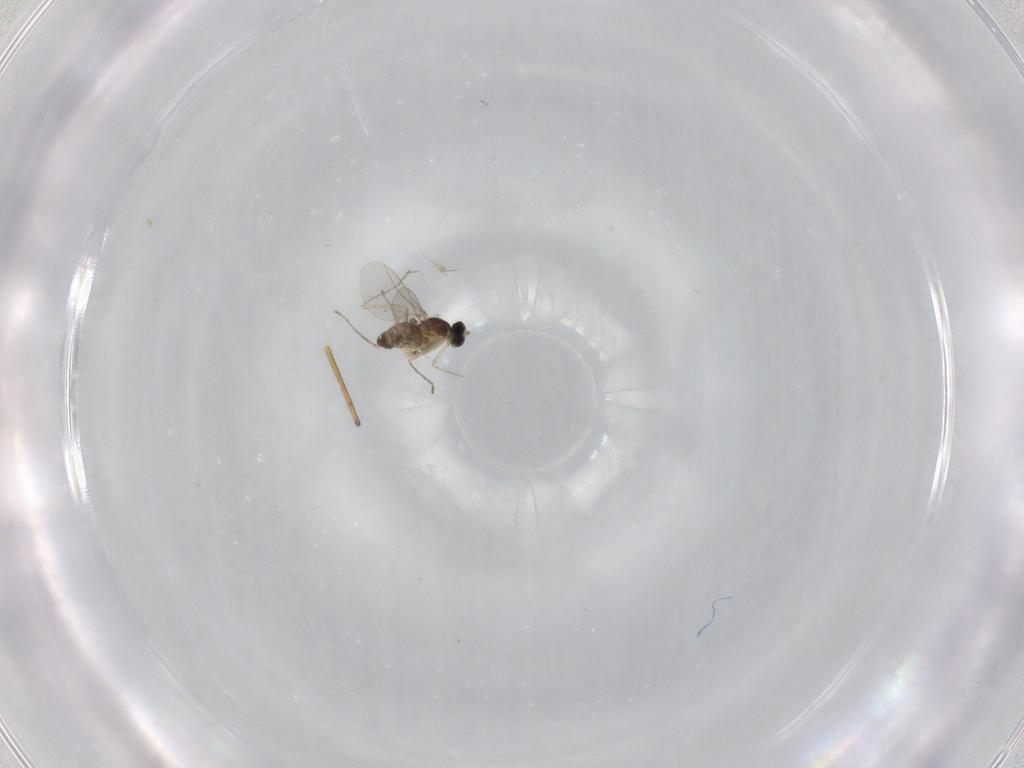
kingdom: Animalia
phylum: Arthropoda
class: Insecta
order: Diptera
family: Cecidomyiidae
